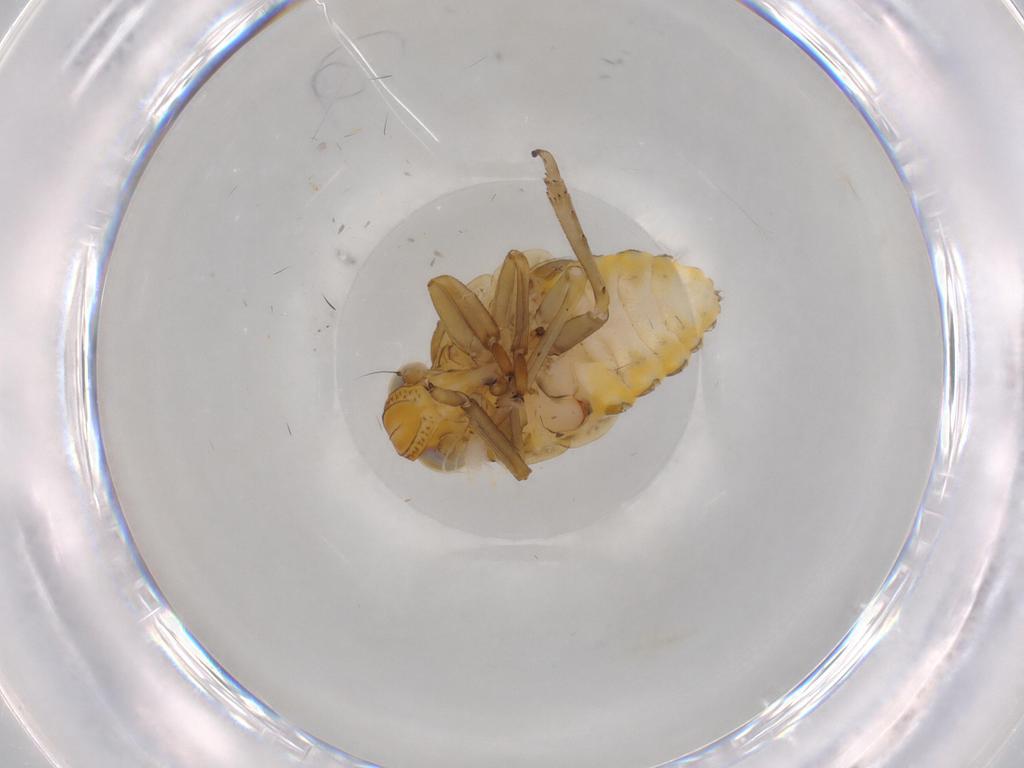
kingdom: Animalia
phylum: Arthropoda
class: Insecta
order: Hemiptera
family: Issidae
